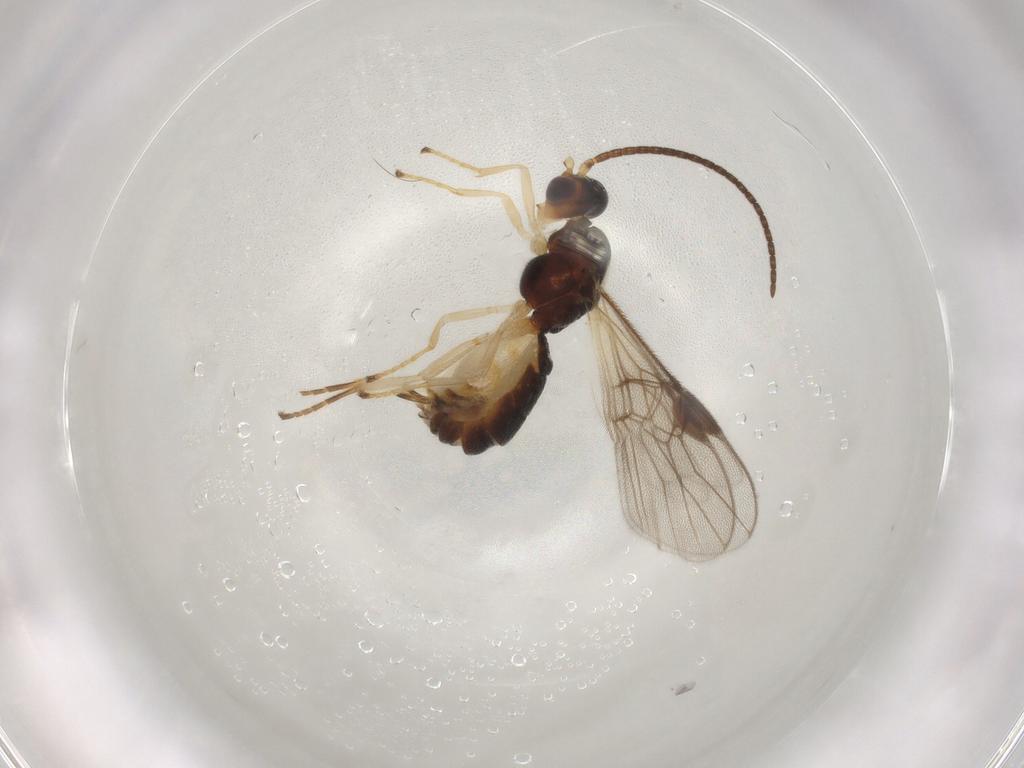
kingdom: Animalia
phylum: Arthropoda
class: Insecta
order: Hymenoptera
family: Braconidae
